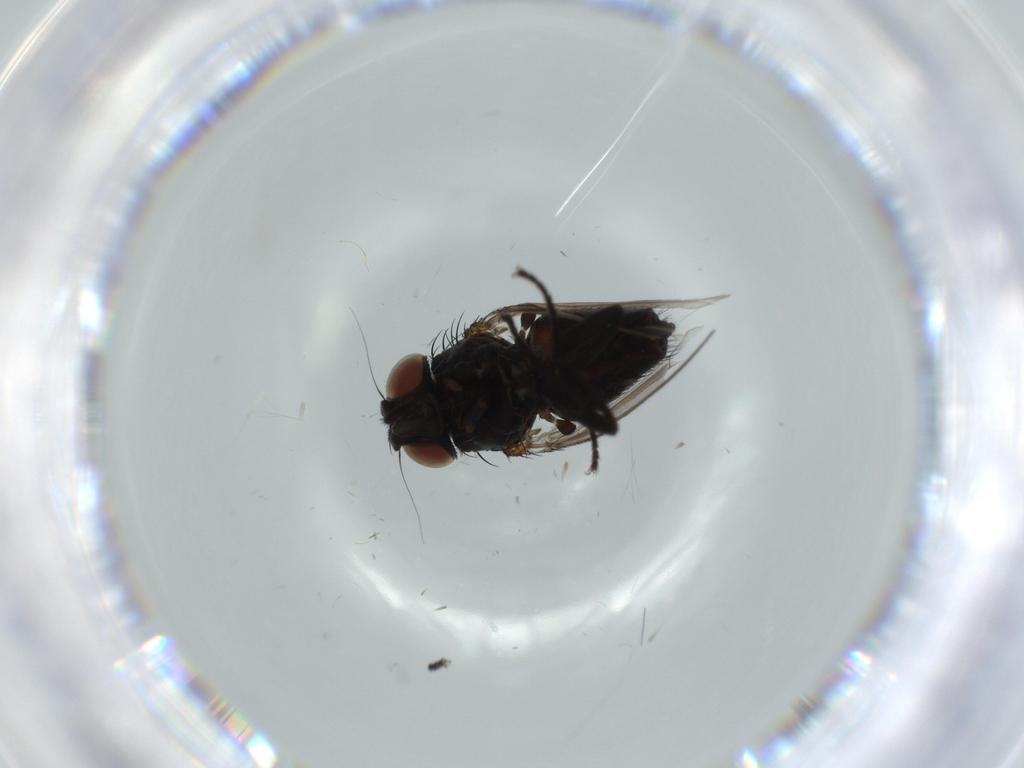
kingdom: Animalia
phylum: Arthropoda
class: Insecta
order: Diptera
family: Milichiidae
